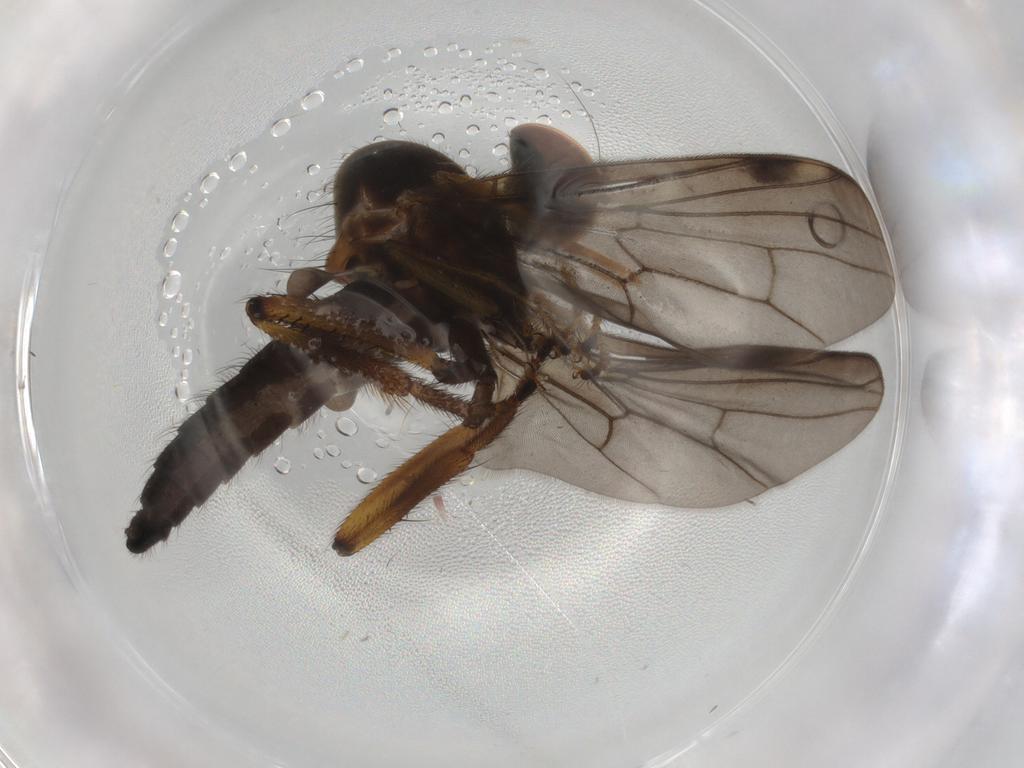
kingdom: Animalia
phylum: Arthropoda
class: Insecta
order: Diptera
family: Hybotidae
